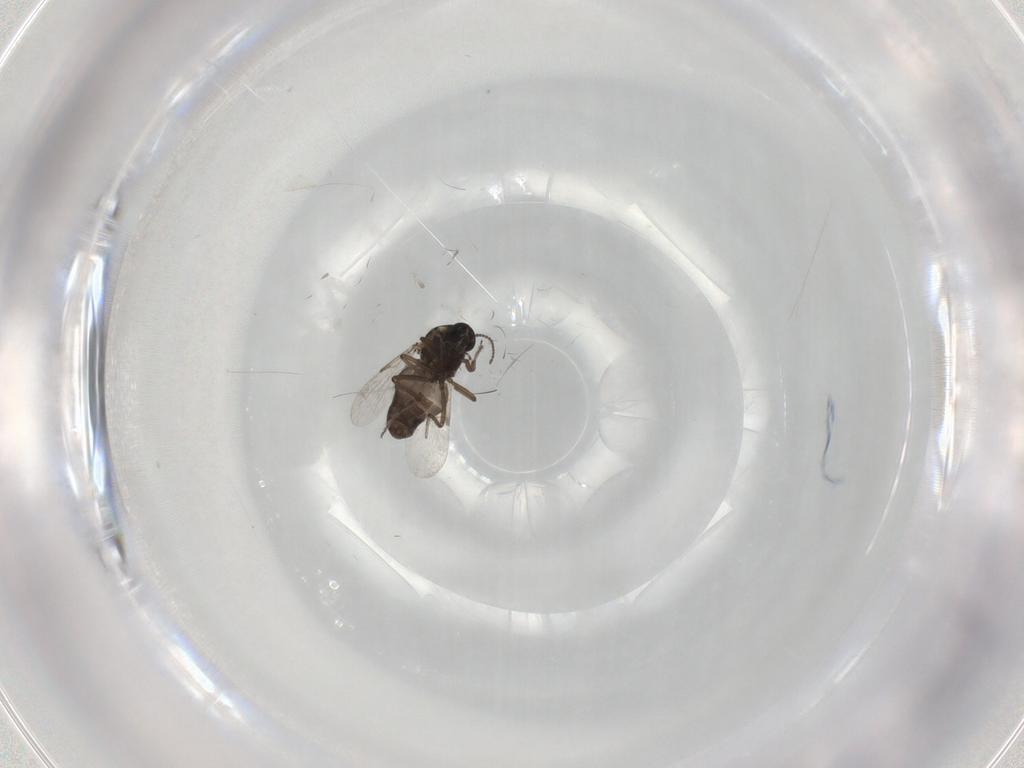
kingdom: Animalia
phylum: Arthropoda
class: Insecta
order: Diptera
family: Ceratopogonidae
